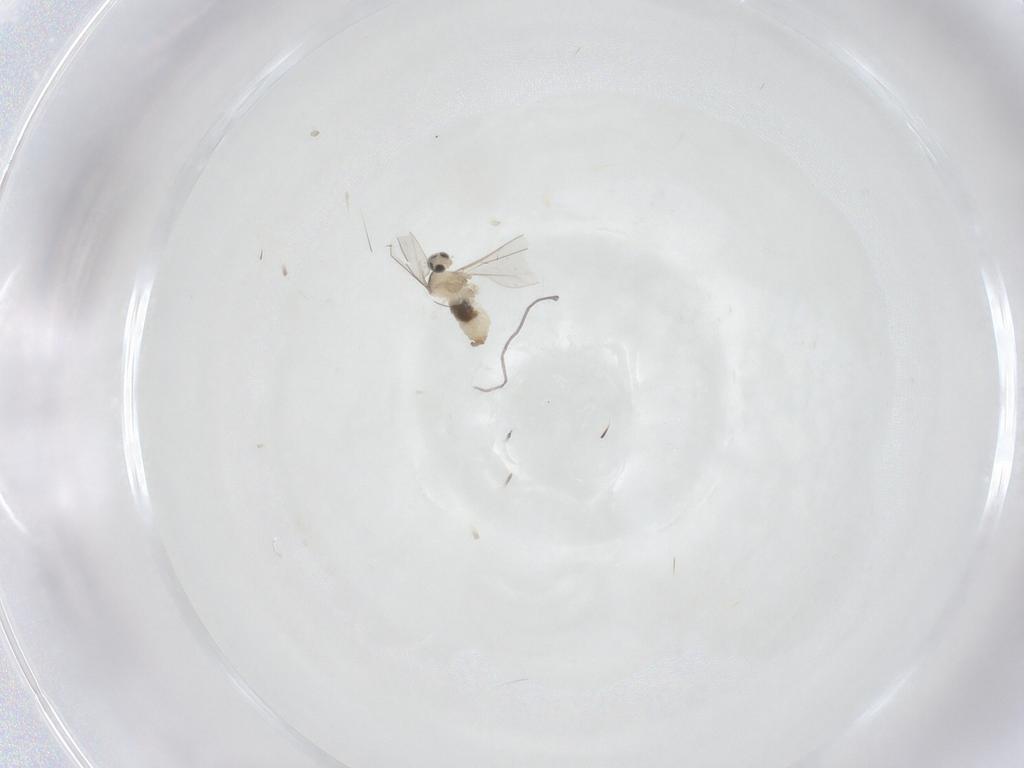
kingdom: Animalia
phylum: Arthropoda
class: Insecta
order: Diptera
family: Cecidomyiidae
